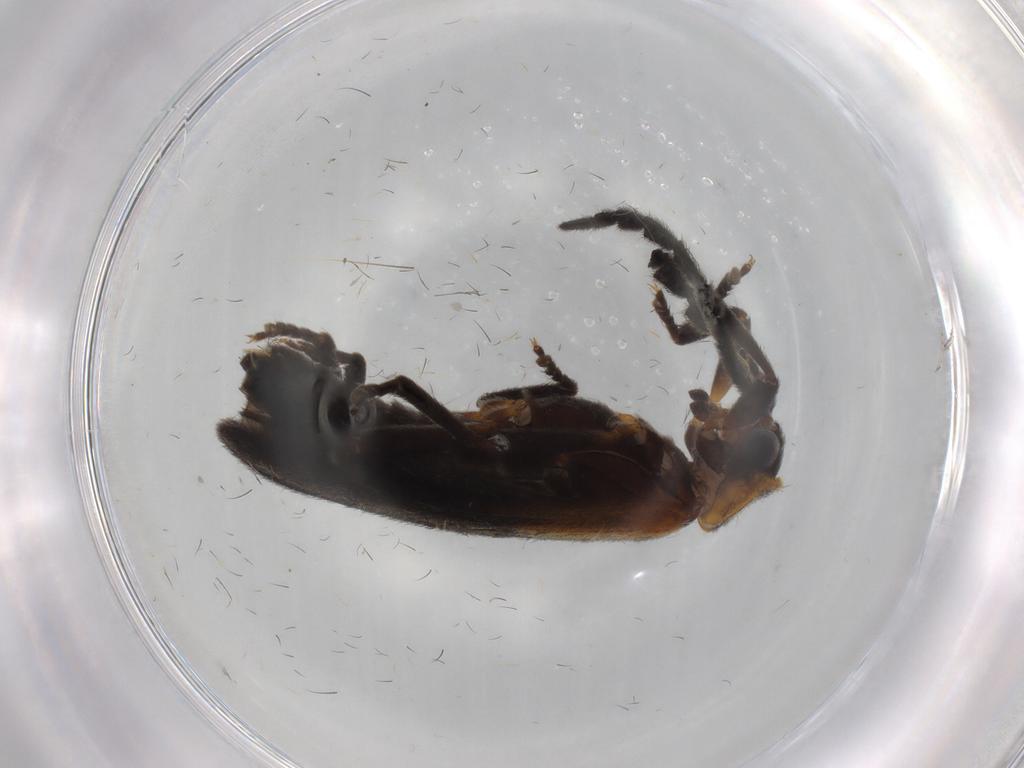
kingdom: Animalia
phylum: Arthropoda
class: Insecta
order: Coleoptera
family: Lycidae
